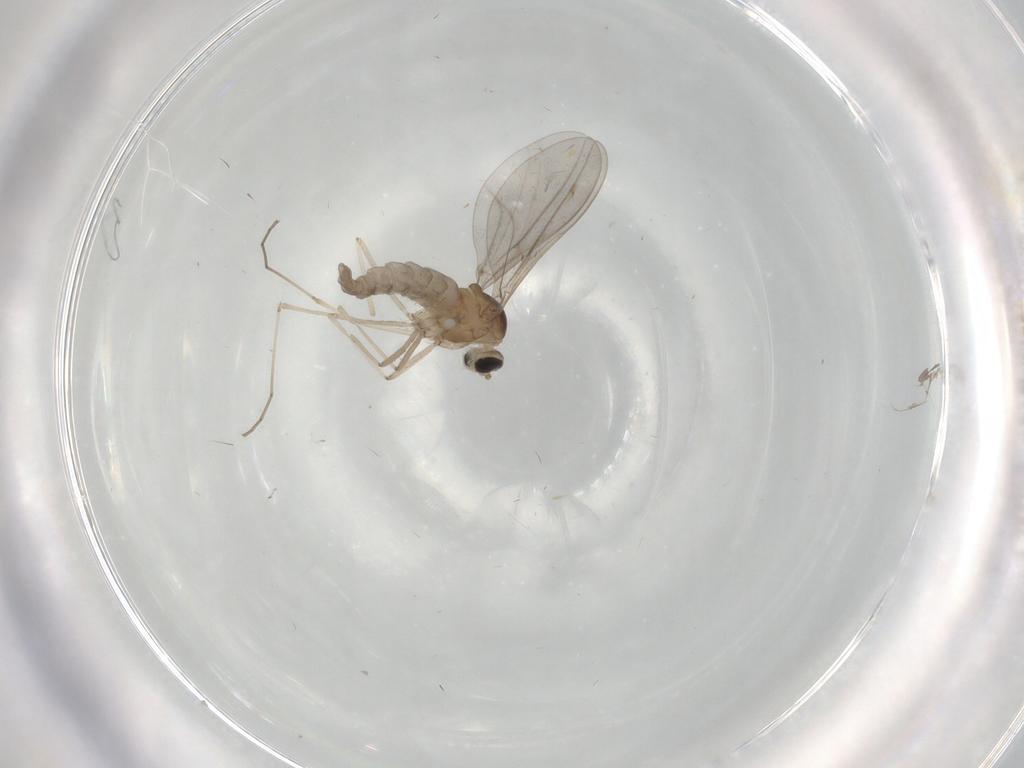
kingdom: Animalia
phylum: Arthropoda
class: Insecta
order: Diptera
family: Cecidomyiidae
